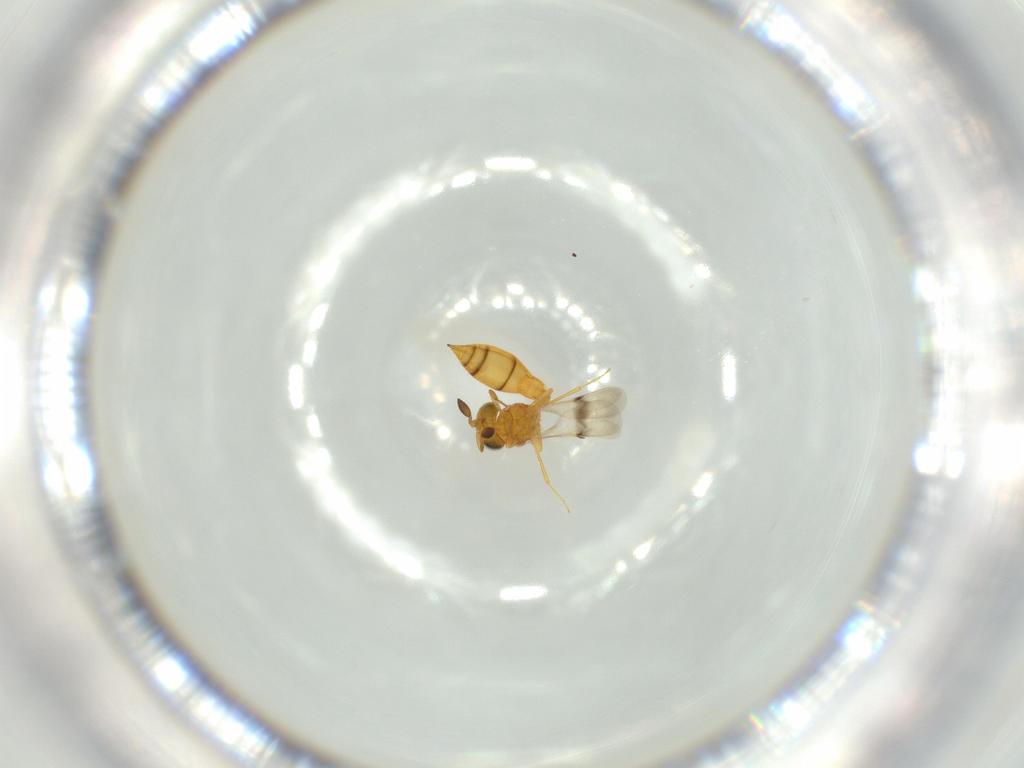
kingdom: Animalia
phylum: Arthropoda
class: Insecta
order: Hymenoptera
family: Scelionidae
